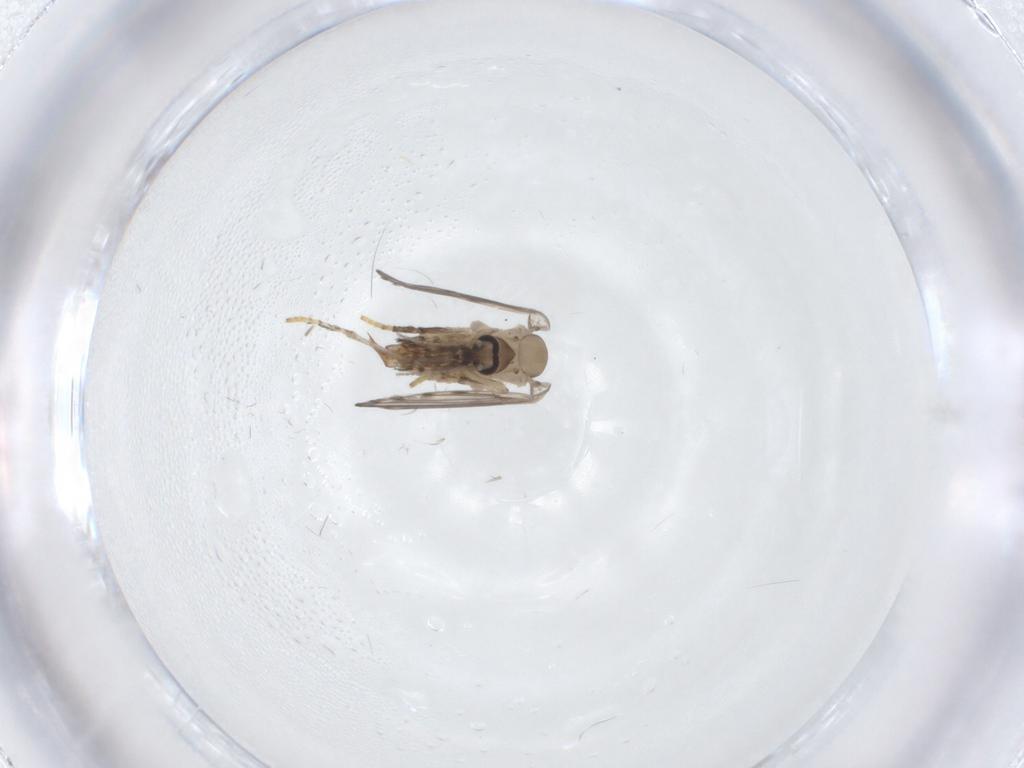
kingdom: Animalia
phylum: Arthropoda
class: Insecta
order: Diptera
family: Psychodidae
